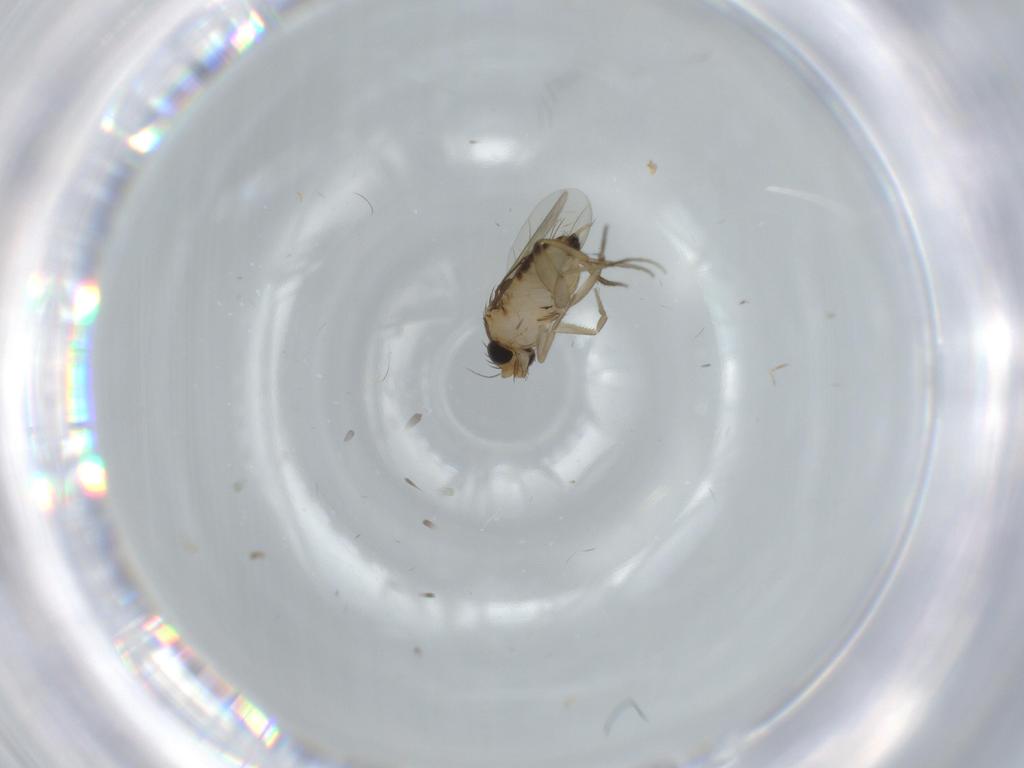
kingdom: Animalia
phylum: Arthropoda
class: Insecta
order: Diptera
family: Phoridae
